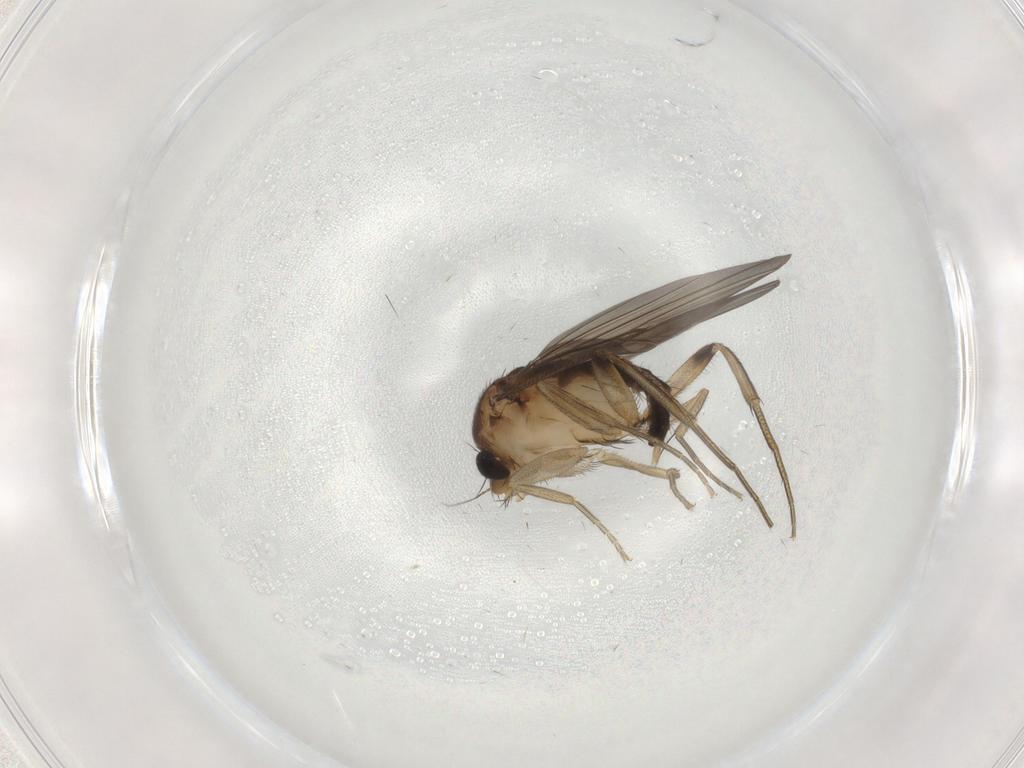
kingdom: Animalia
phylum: Arthropoda
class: Insecta
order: Diptera
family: Phoridae
